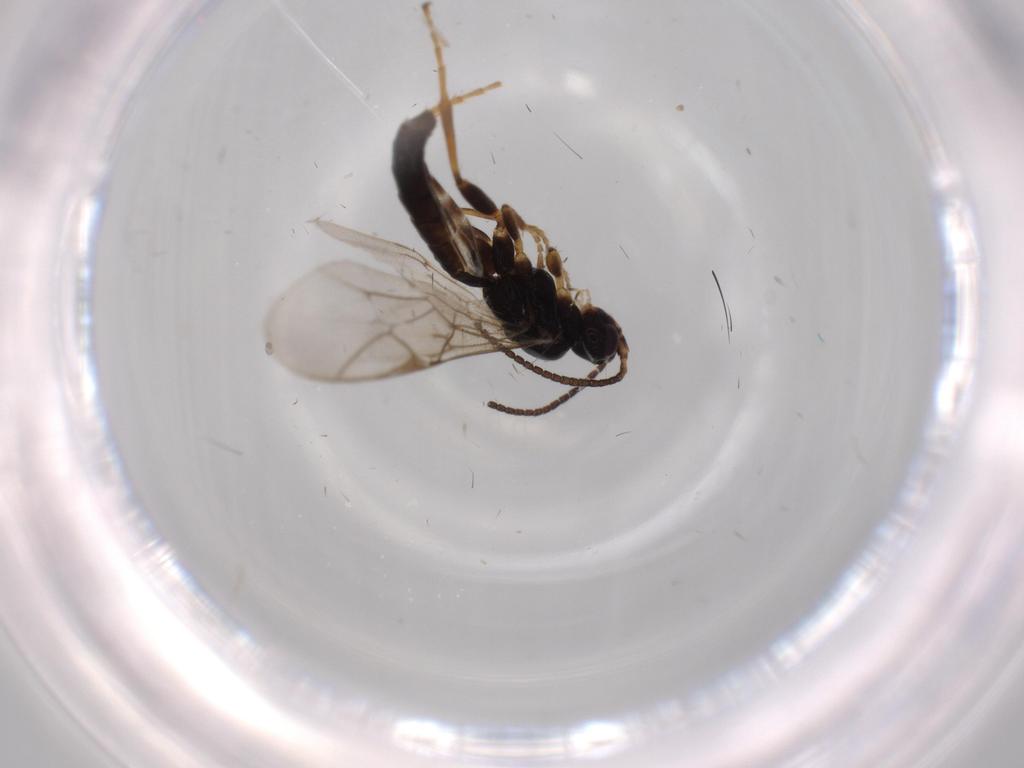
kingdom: Animalia
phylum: Arthropoda
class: Insecta
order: Hymenoptera
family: Ichneumonidae
